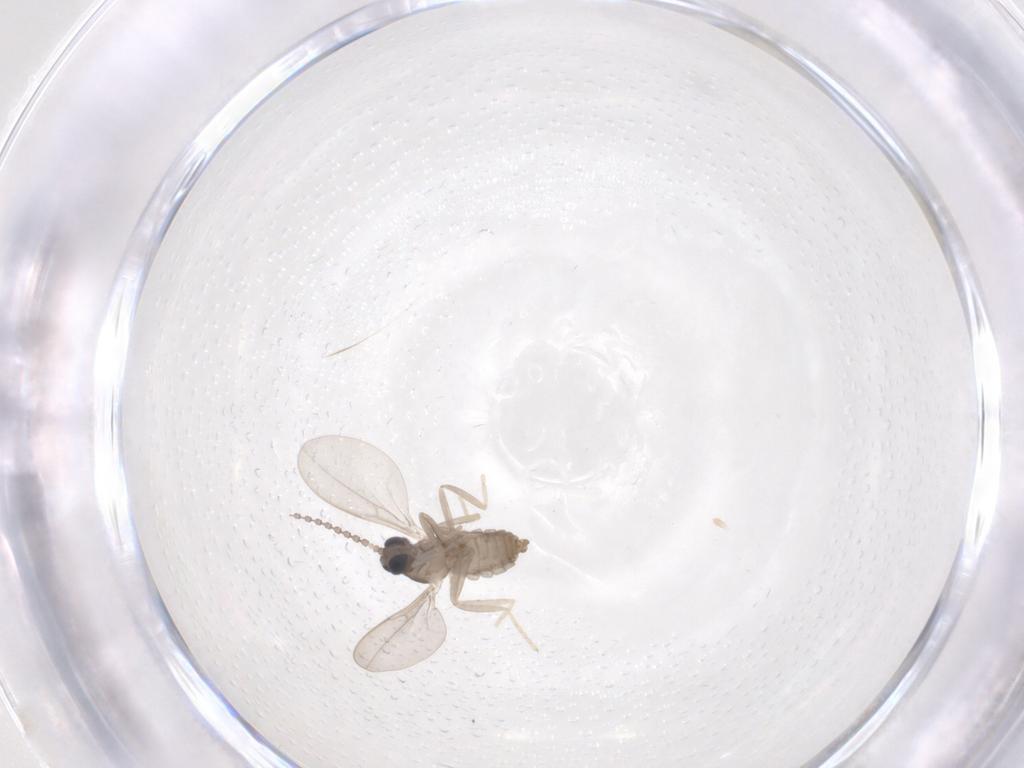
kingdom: Animalia
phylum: Arthropoda
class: Insecta
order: Diptera
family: Cecidomyiidae
